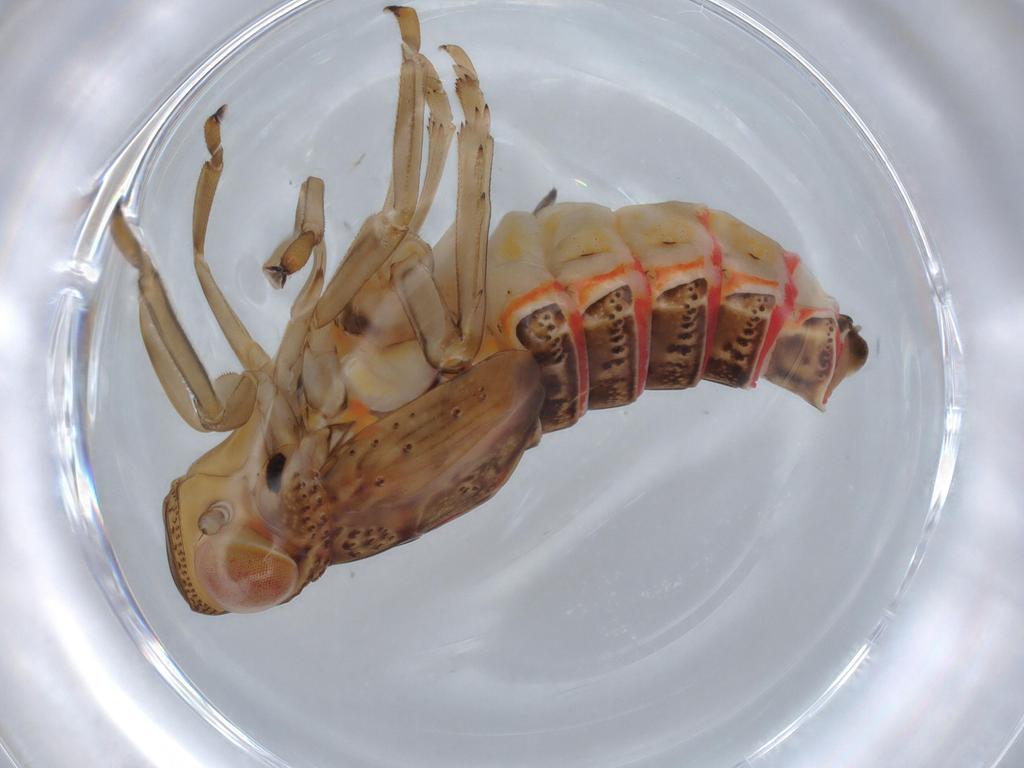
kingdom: Animalia
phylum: Arthropoda
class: Insecta
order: Hemiptera
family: Issidae
